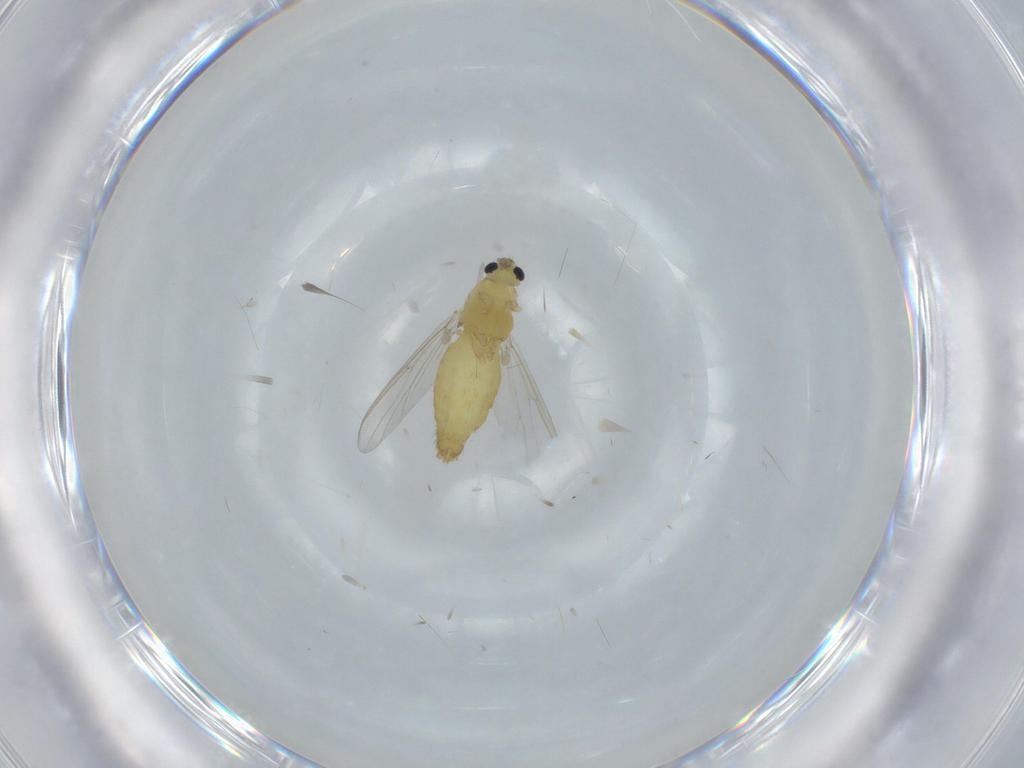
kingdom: Animalia
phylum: Arthropoda
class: Insecta
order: Diptera
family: Chironomidae
